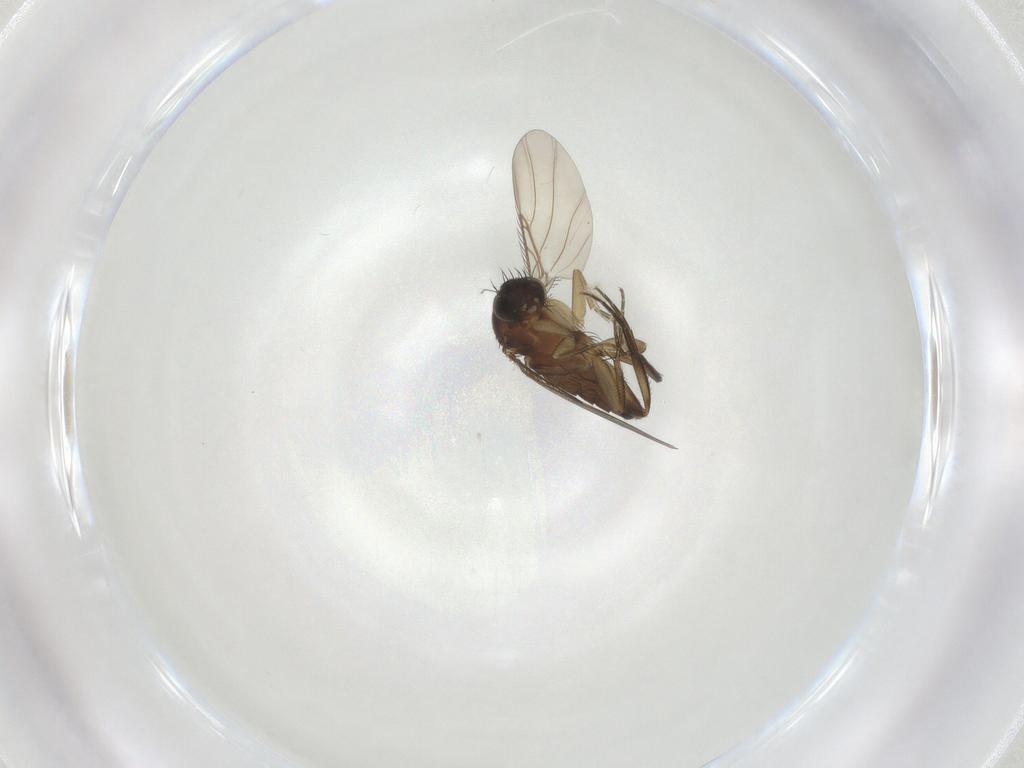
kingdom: Animalia
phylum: Arthropoda
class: Insecta
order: Diptera
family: Phoridae
